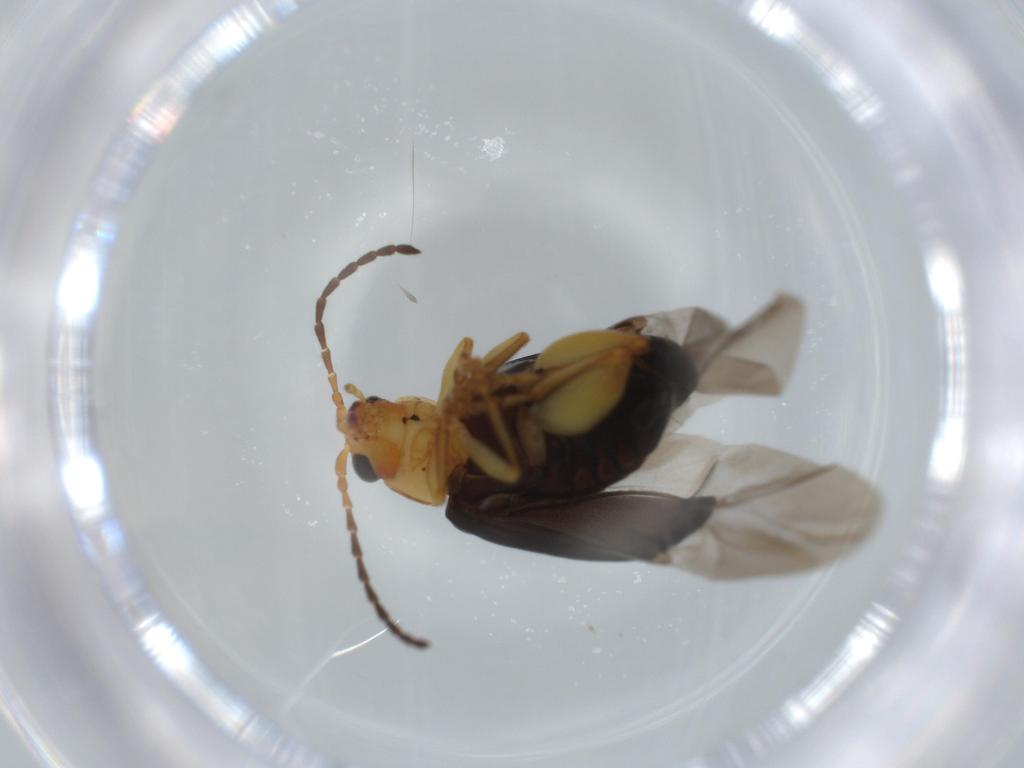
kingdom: Animalia
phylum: Arthropoda
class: Insecta
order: Coleoptera
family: Chrysomelidae
